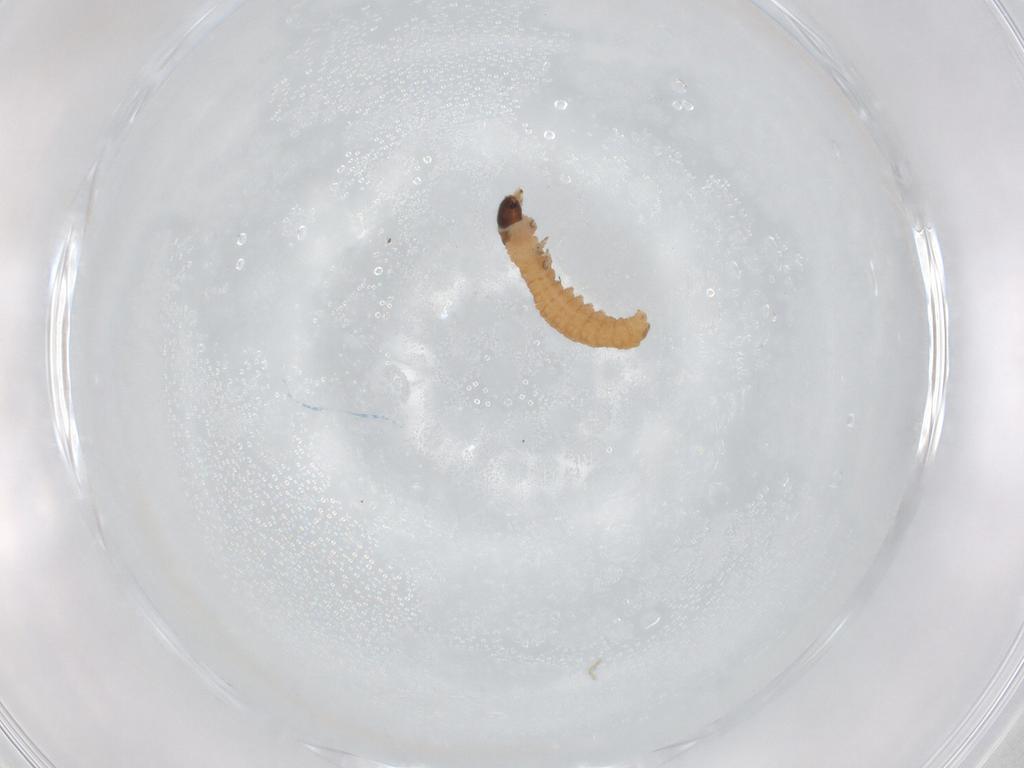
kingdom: Animalia
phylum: Arthropoda
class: Insecta
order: Lepidoptera
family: Tortricidae
